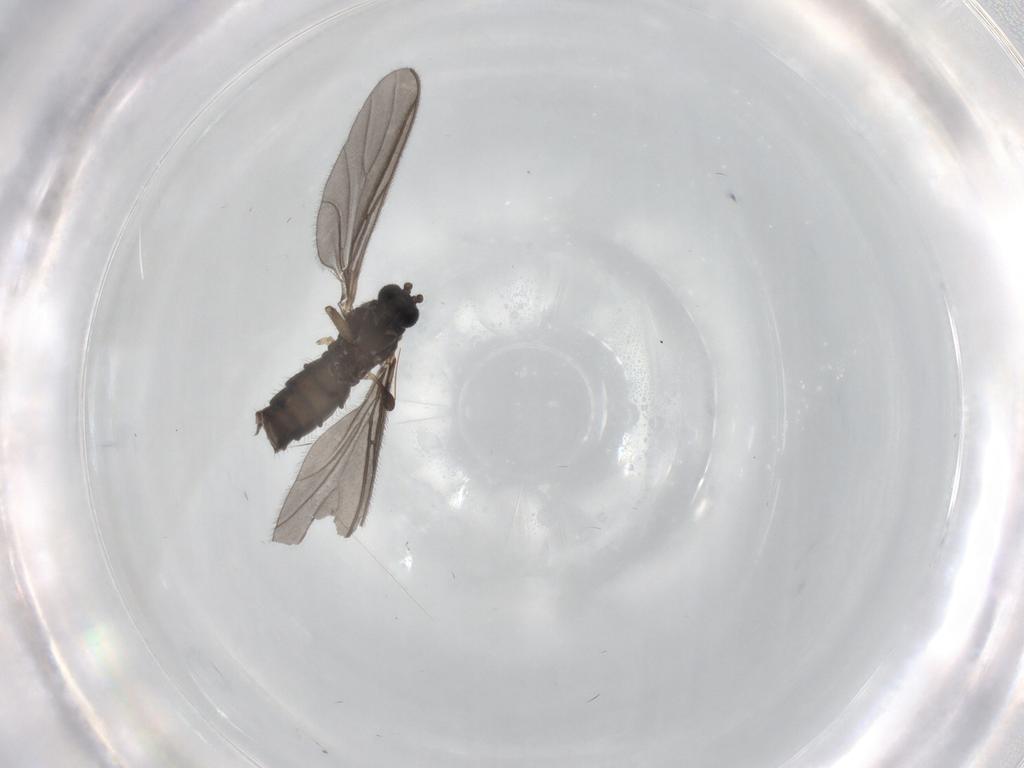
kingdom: Animalia
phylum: Arthropoda
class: Insecta
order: Diptera
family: Sciaridae
